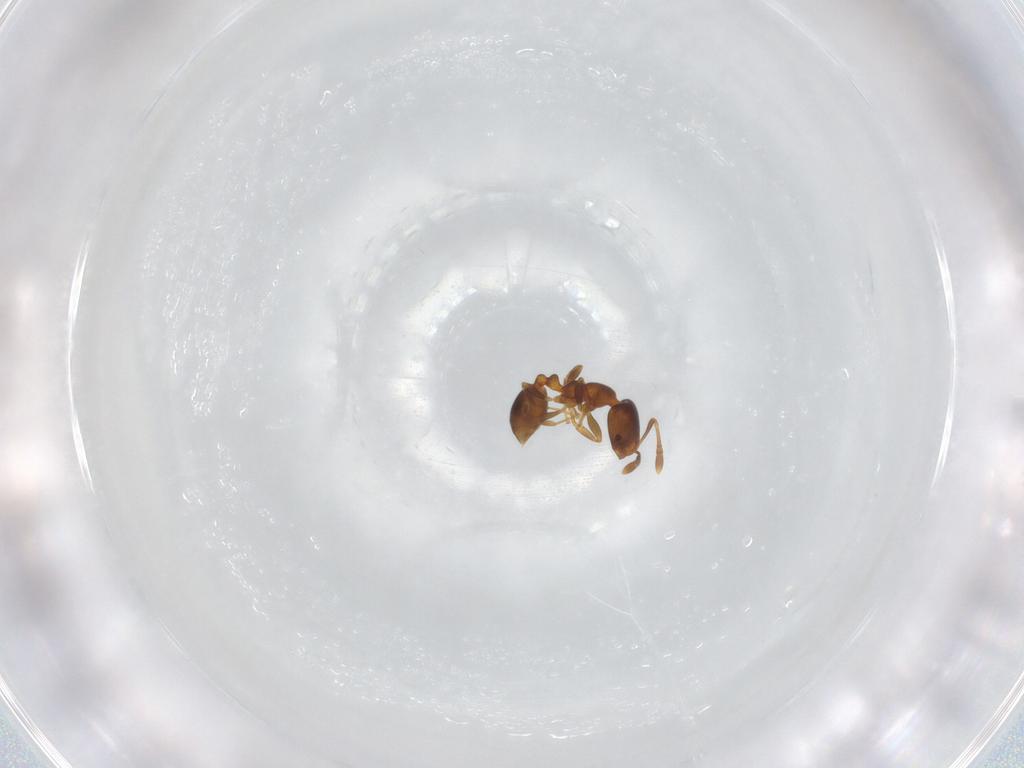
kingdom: Animalia
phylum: Arthropoda
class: Insecta
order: Hymenoptera
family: Formicidae
